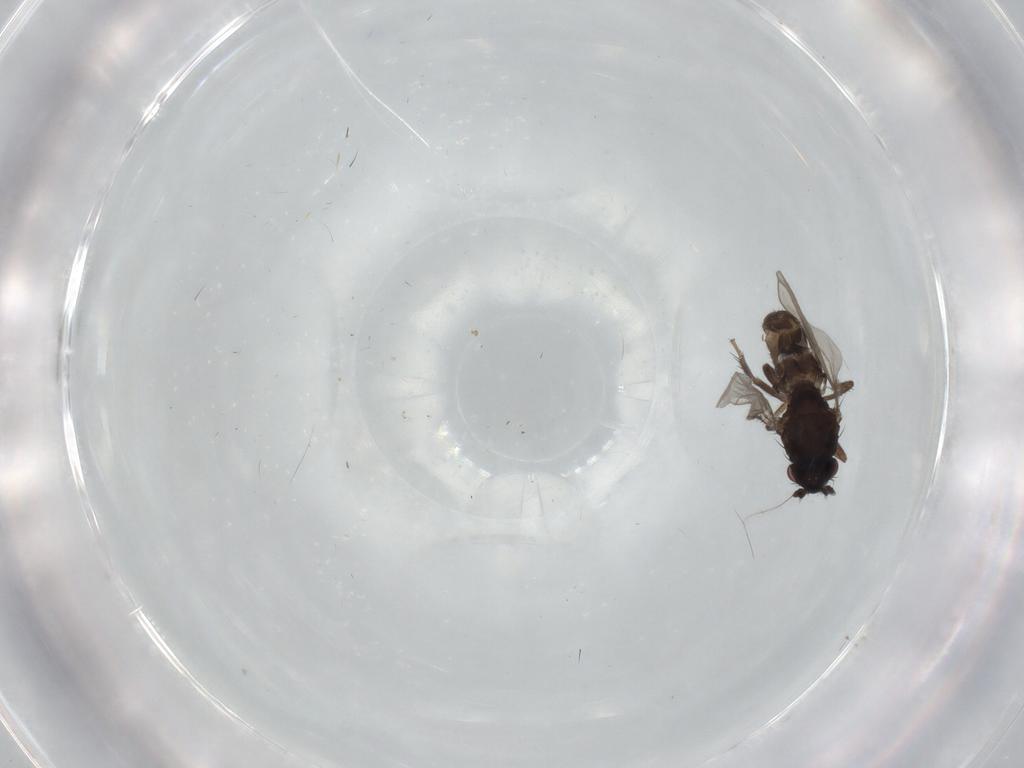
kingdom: Animalia
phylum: Arthropoda
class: Insecta
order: Diptera
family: Sphaeroceridae
